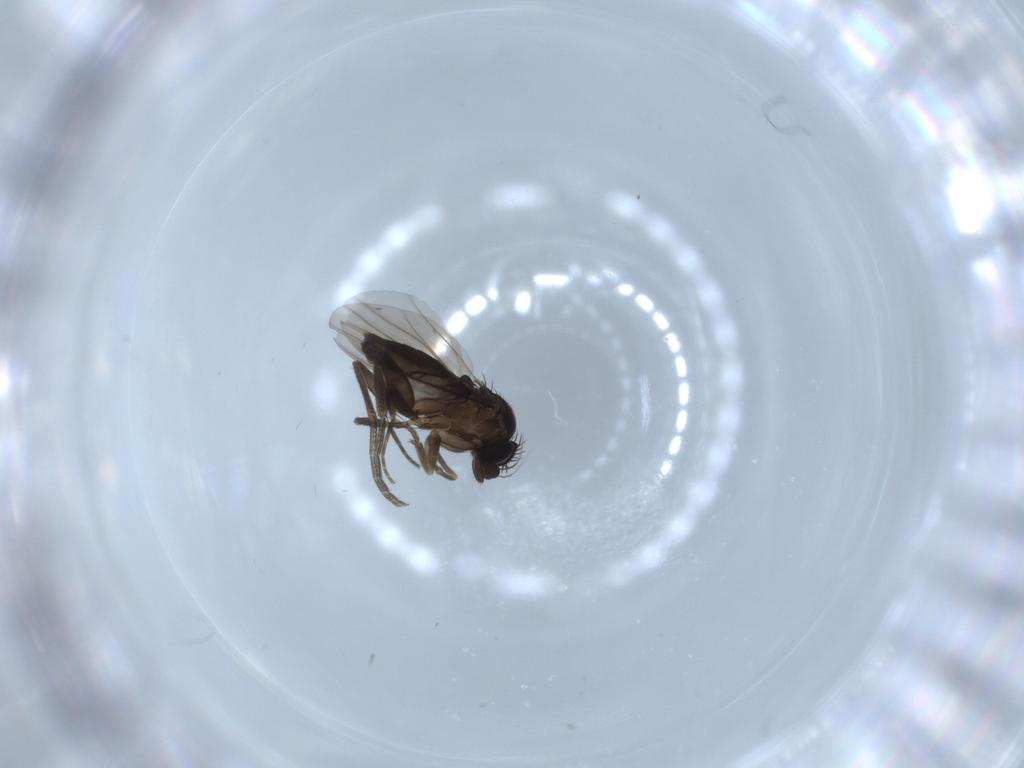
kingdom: Animalia
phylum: Arthropoda
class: Insecta
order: Diptera
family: Phoridae
